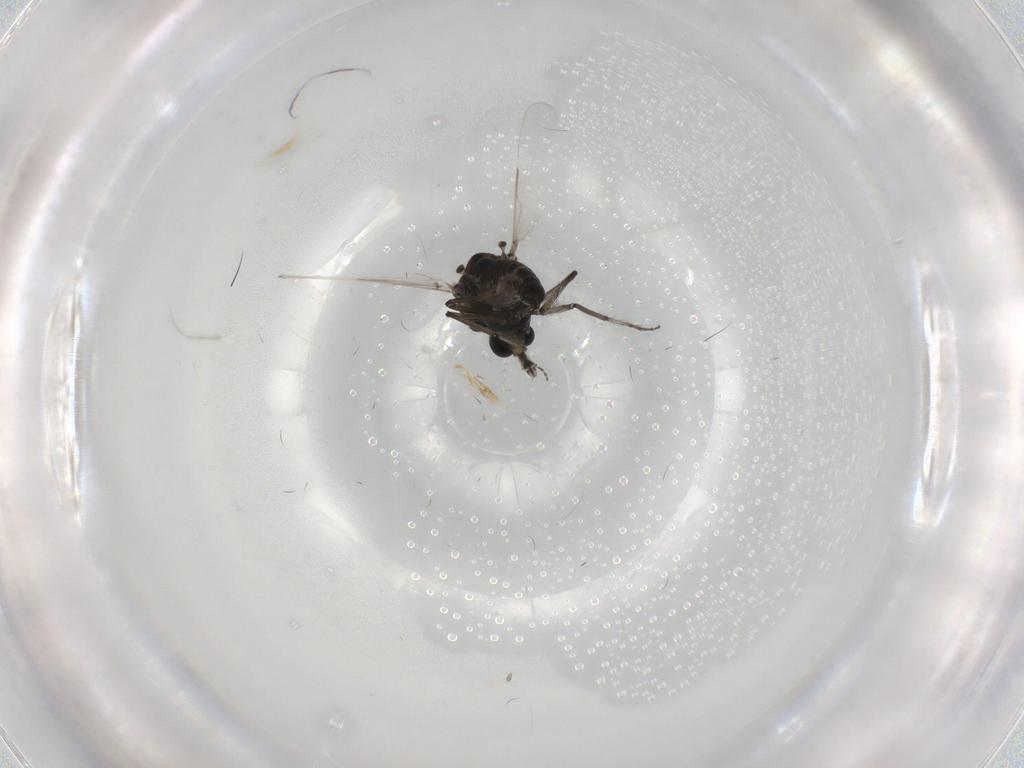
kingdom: Animalia
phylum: Arthropoda
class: Insecta
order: Diptera
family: Ceratopogonidae
